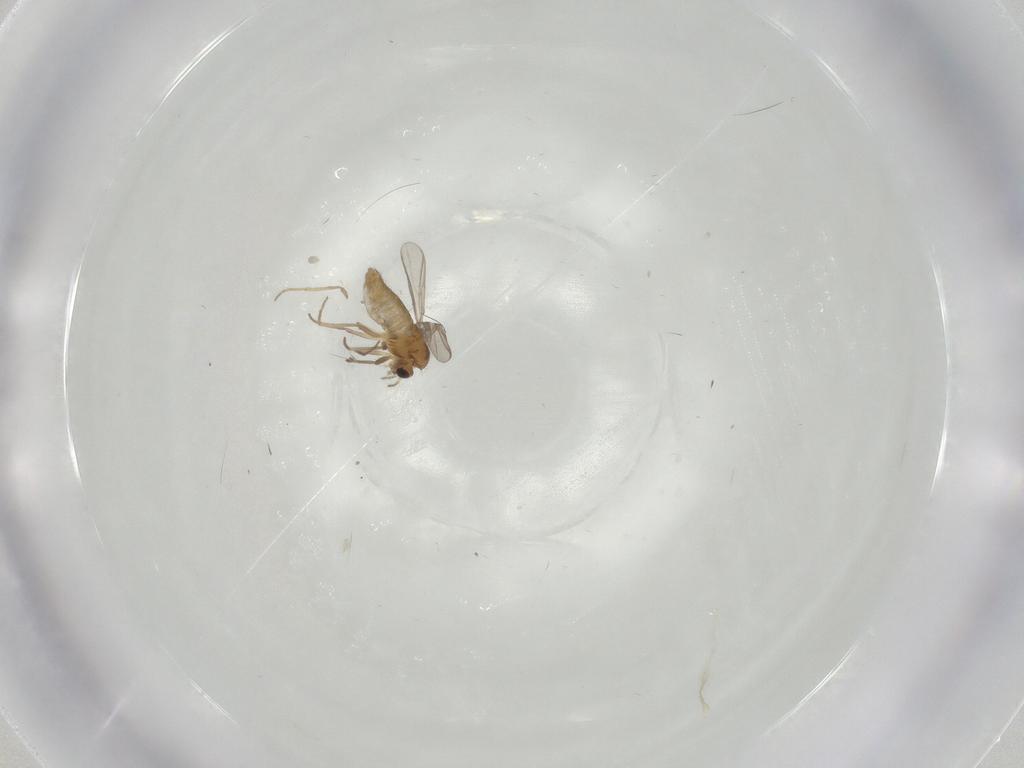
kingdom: Animalia
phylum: Arthropoda
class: Insecta
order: Diptera
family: Chironomidae
